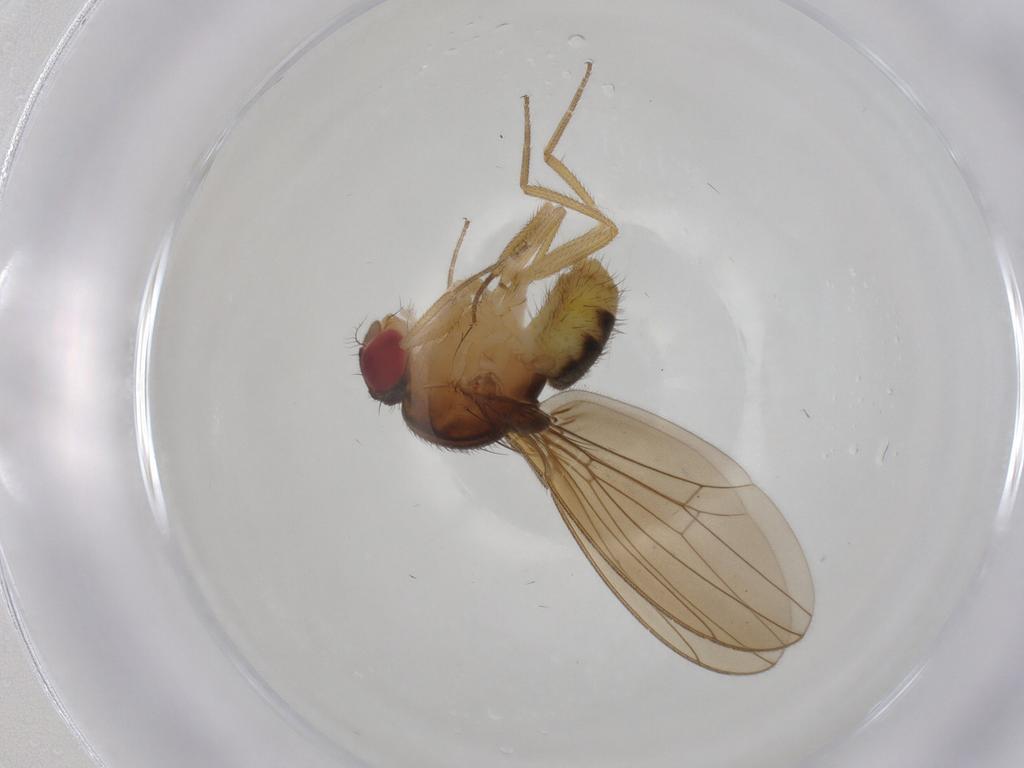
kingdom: Animalia
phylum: Arthropoda
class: Insecta
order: Diptera
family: Drosophilidae
